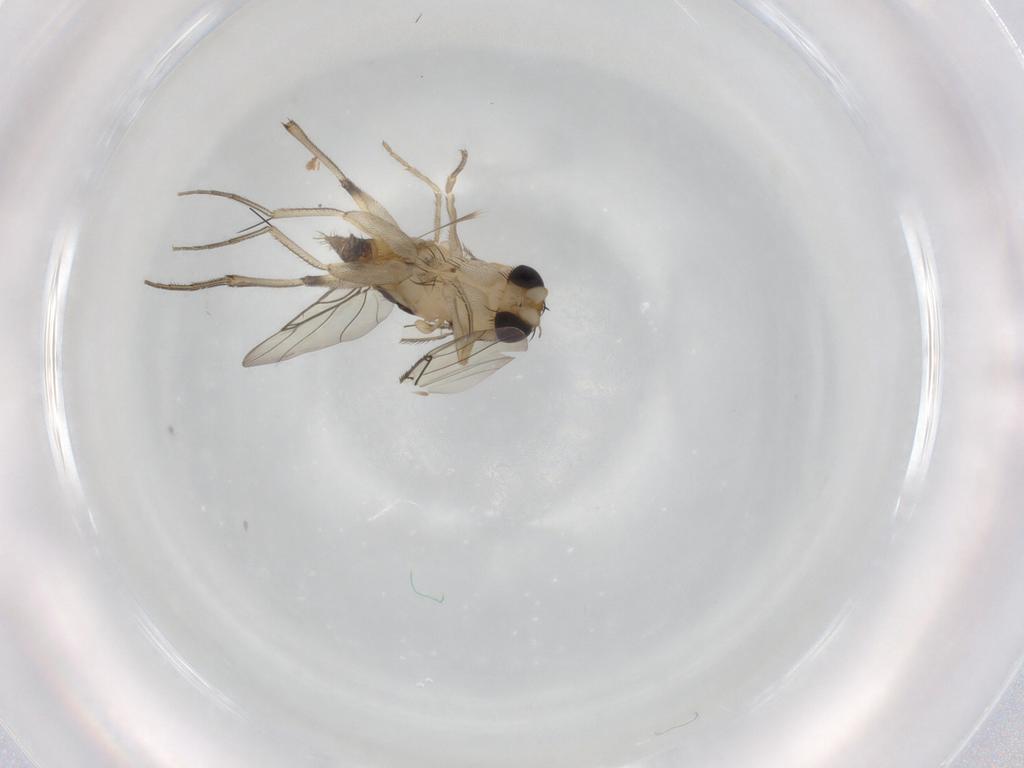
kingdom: Animalia
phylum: Arthropoda
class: Insecta
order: Diptera
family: Phoridae
